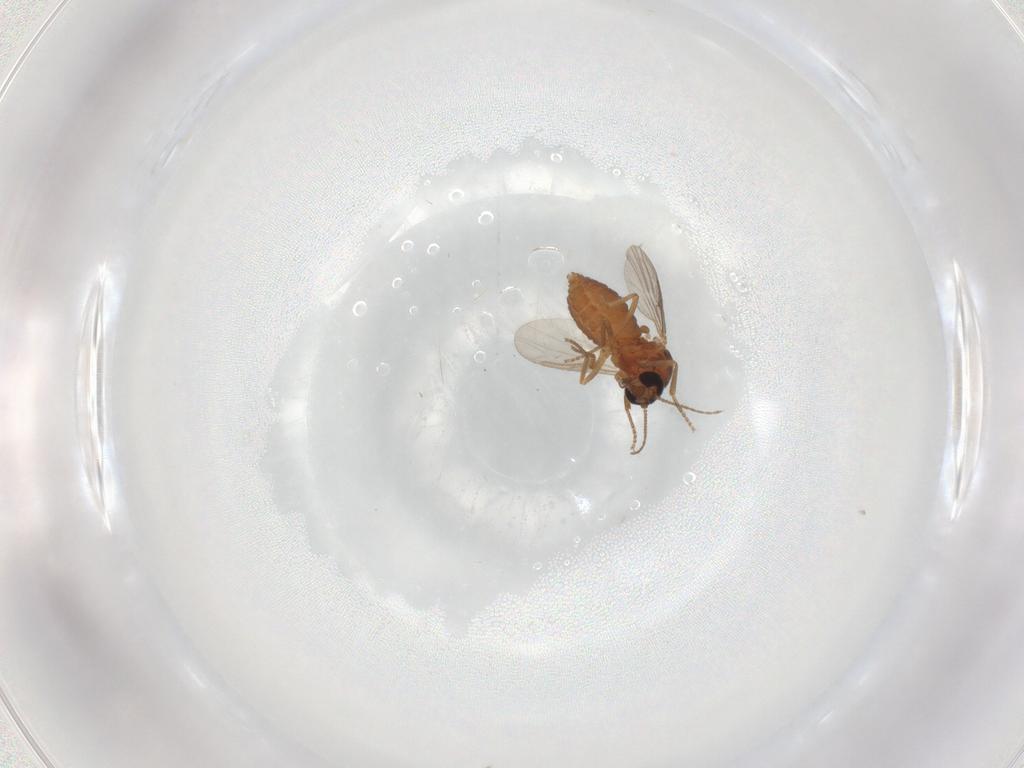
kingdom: Animalia
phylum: Arthropoda
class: Insecta
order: Diptera
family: Ceratopogonidae
